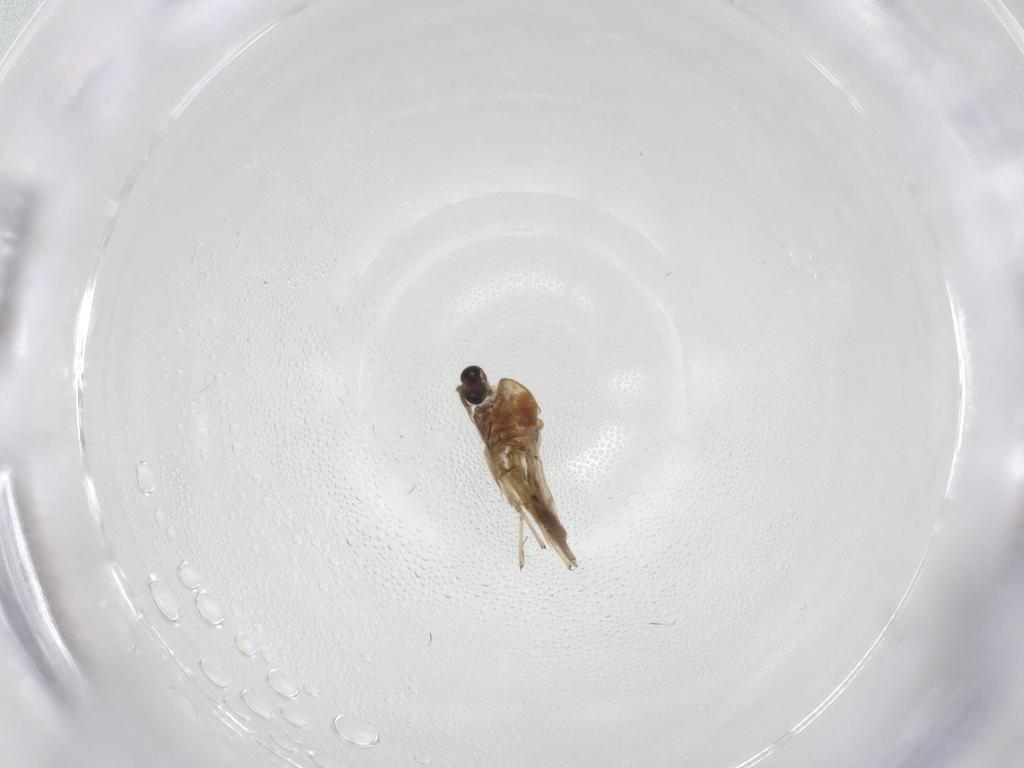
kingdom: Animalia
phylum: Arthropoda
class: Insecta
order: Diptera
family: Chironomidae
